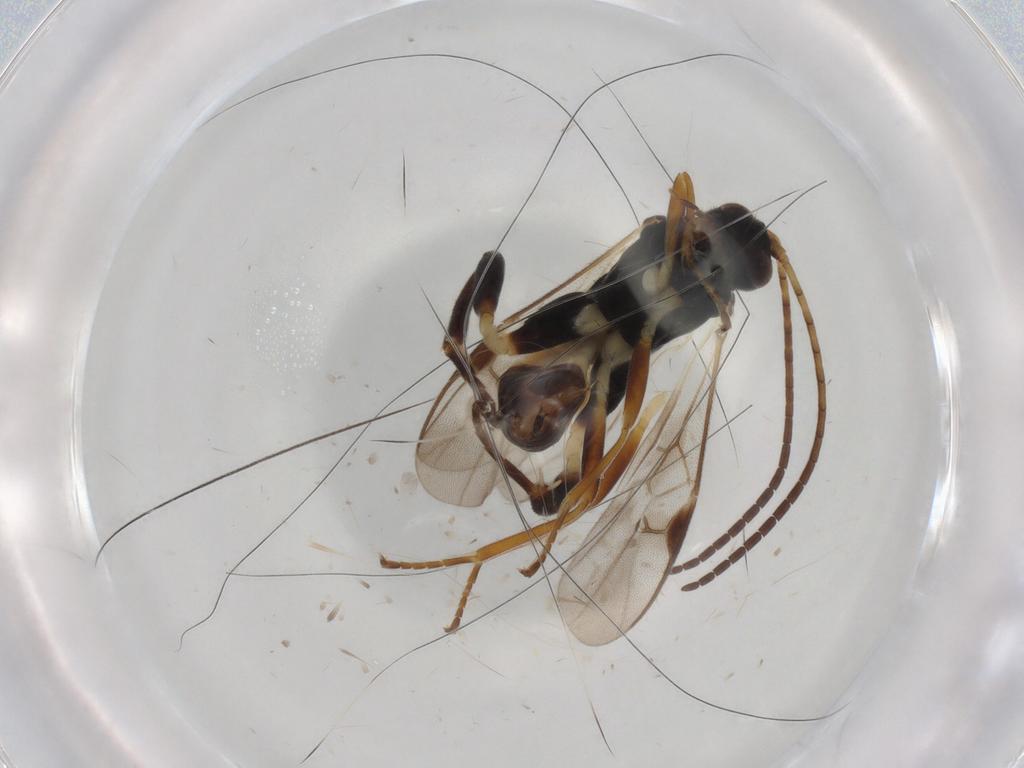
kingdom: Animalia
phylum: Arthropoda
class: Insecta
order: Hymenoptera
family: Braconidae
